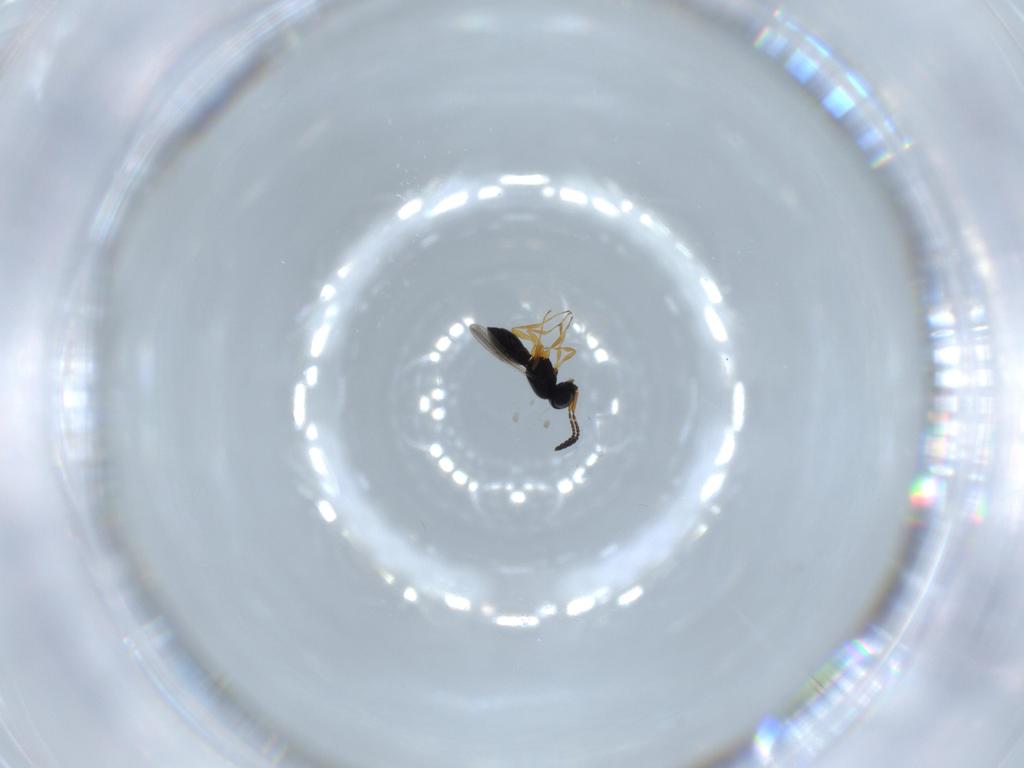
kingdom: Animalia
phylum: Arthropoda
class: Insecta
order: Hymenoptera
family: Scelionidae
